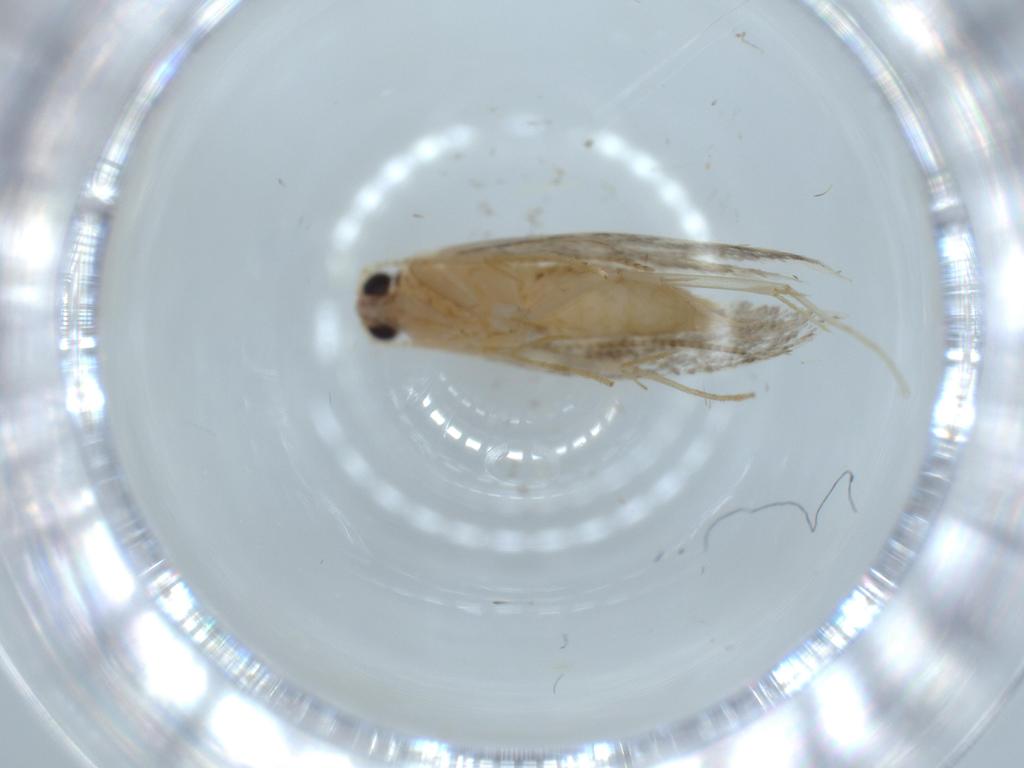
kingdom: Animalia
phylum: Arthropoda
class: Insecta
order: Lepidoptera
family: Tineidae
